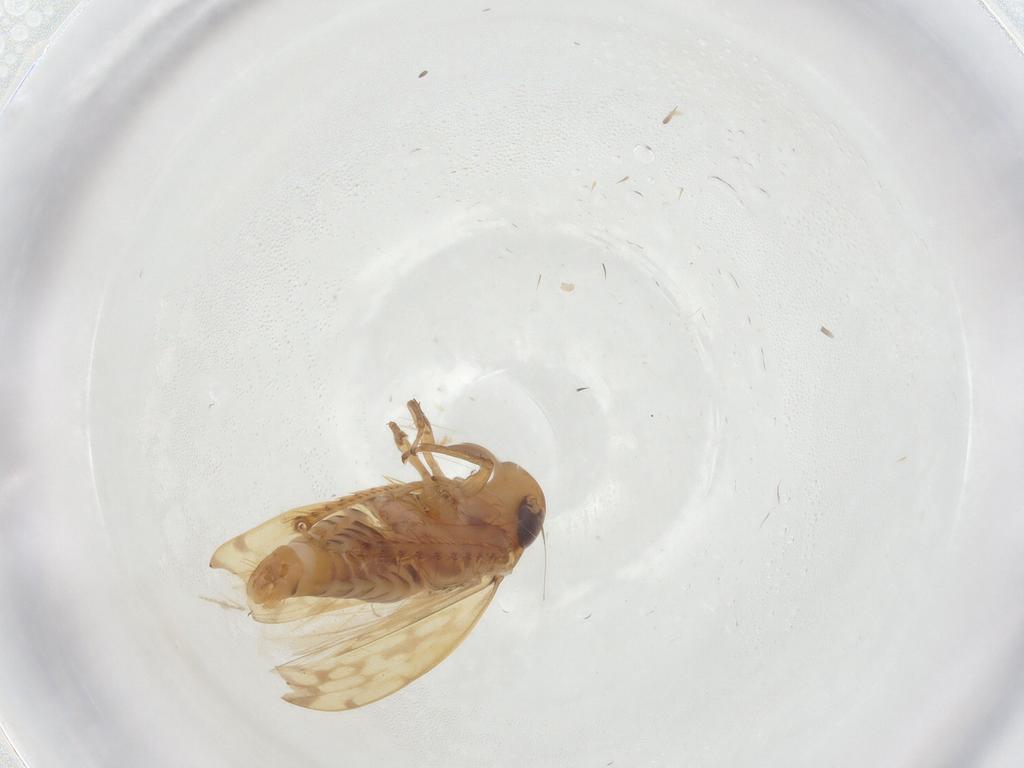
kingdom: Animalia
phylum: Arthropoda
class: Insecta
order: Hemiptera
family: Cicadellidae
